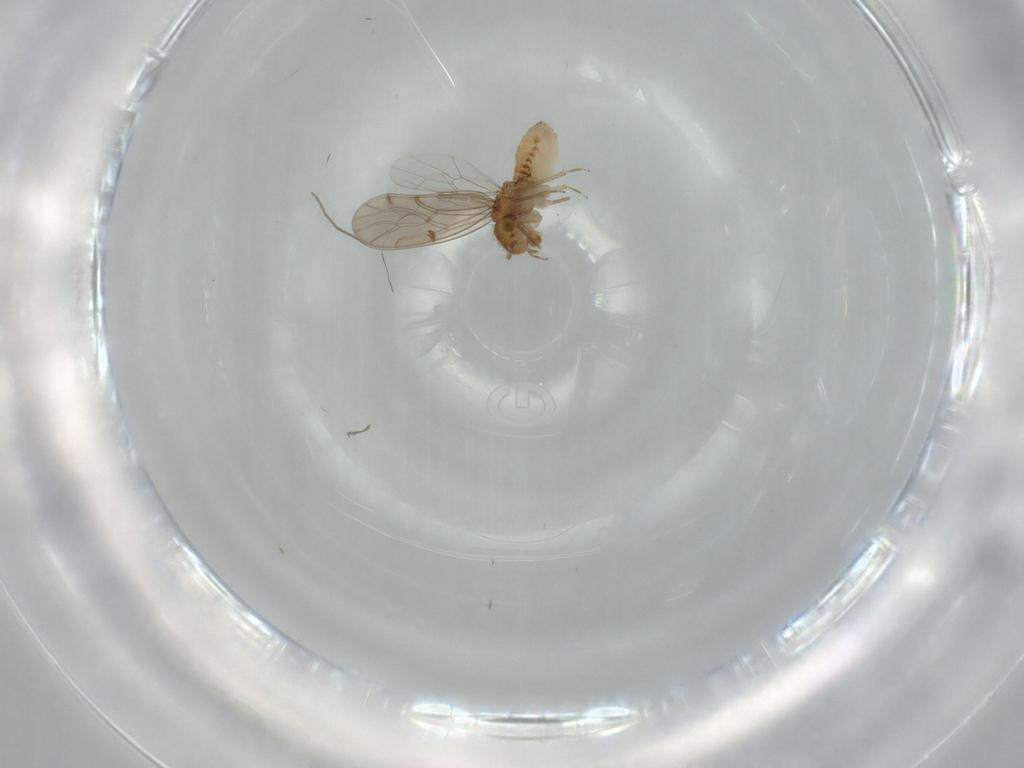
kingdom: Animalia
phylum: Arthropoda
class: Insecta
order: Psocodea
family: Ectopsocidae
